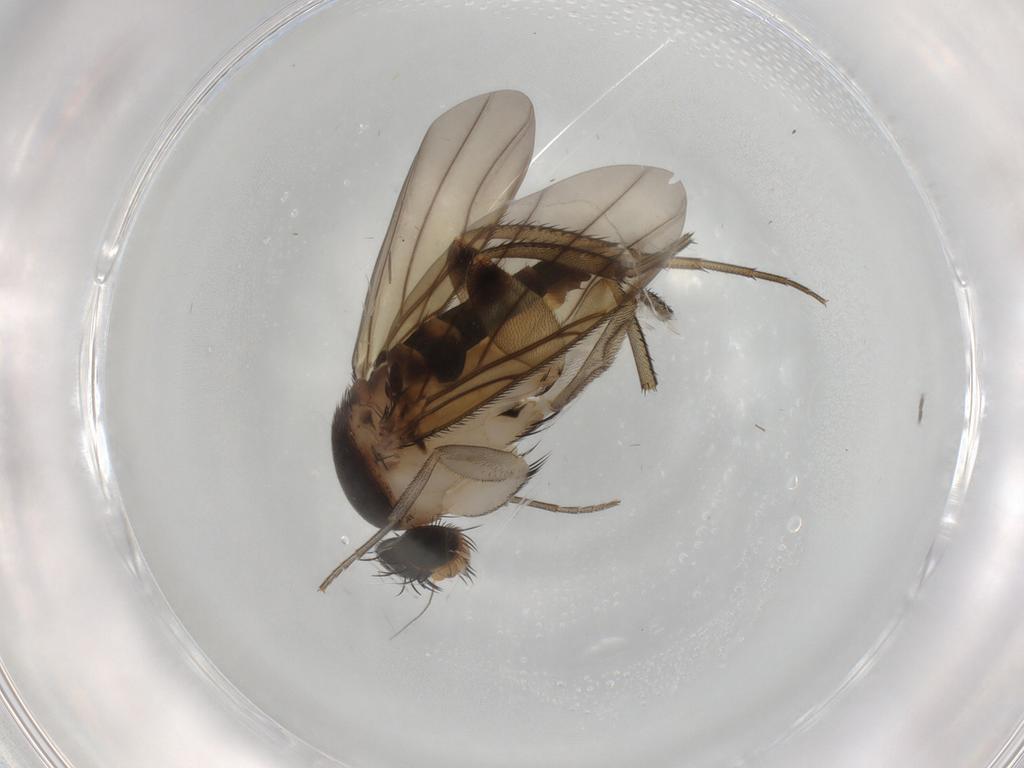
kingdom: Animalia
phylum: Arthropoda
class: Insecta
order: Diptera
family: Phoridae
